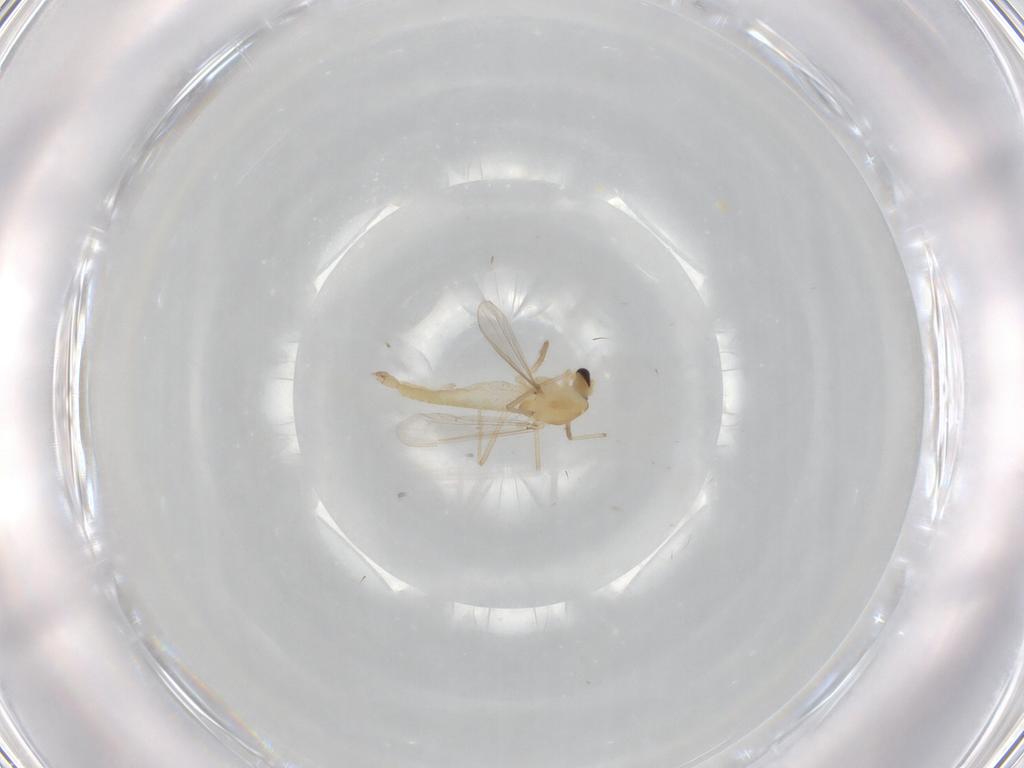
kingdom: Animalia
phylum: Arthropoda
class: Insecta
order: Diptera
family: Chironomidae
